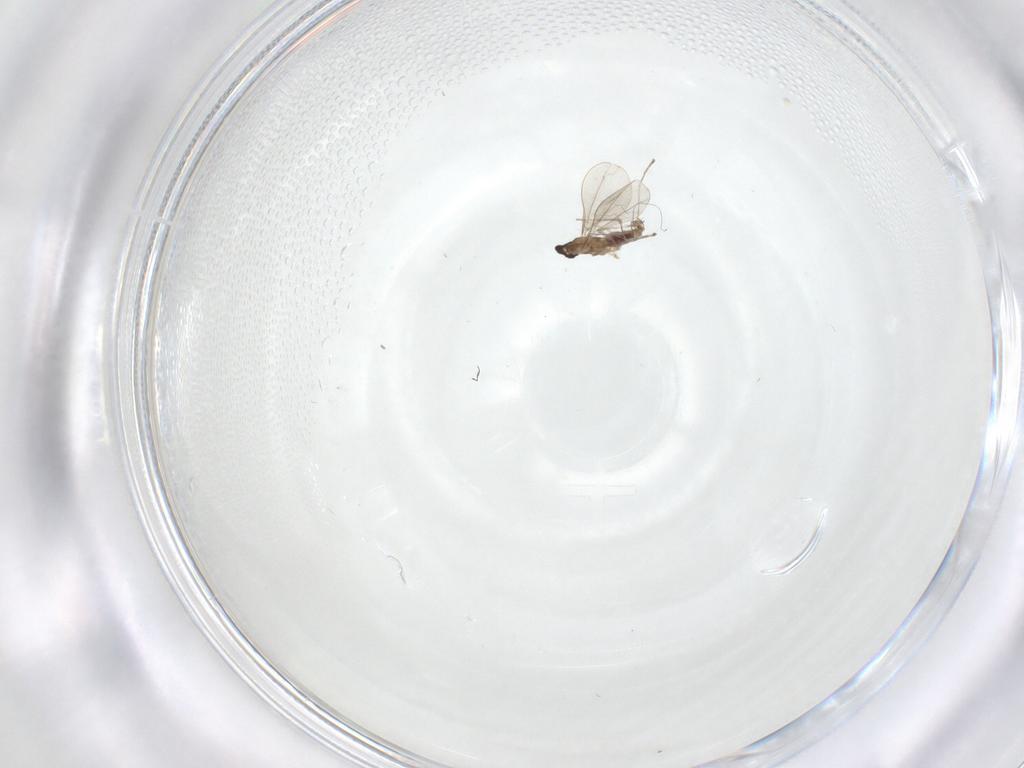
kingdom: Animalia
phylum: Arthropoda
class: Insecta
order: Diptera
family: Cecidomyiidae
